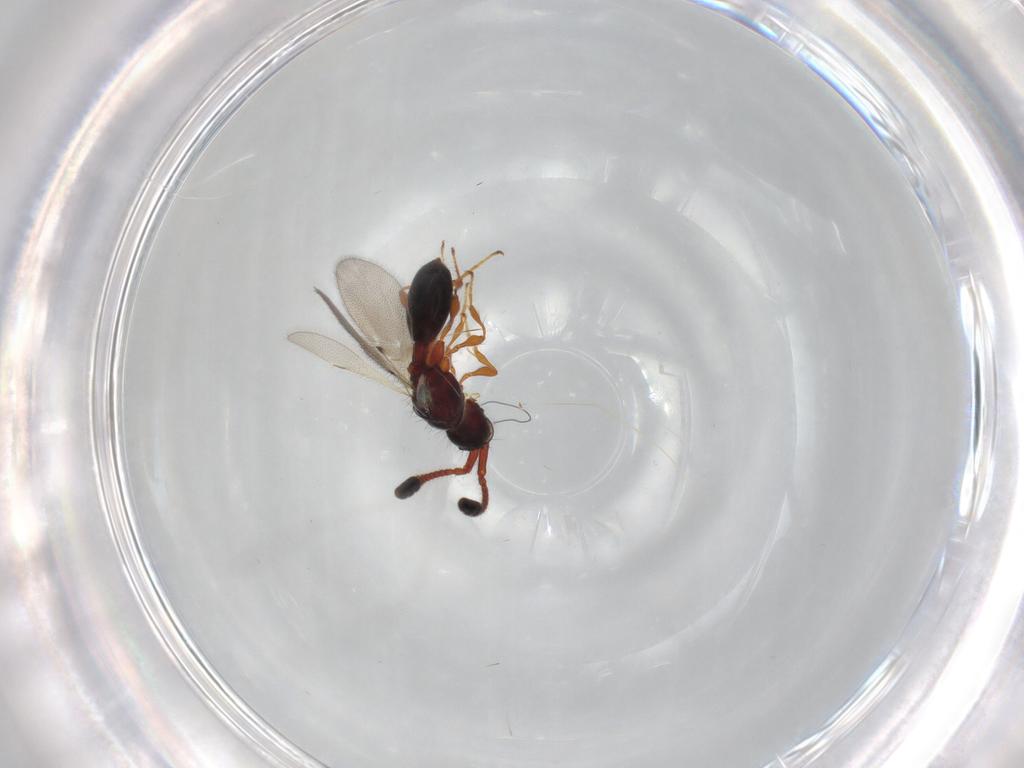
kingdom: Animalia
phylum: Arthropoda
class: Insecta
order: Hymenoptera
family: Diapriidae
